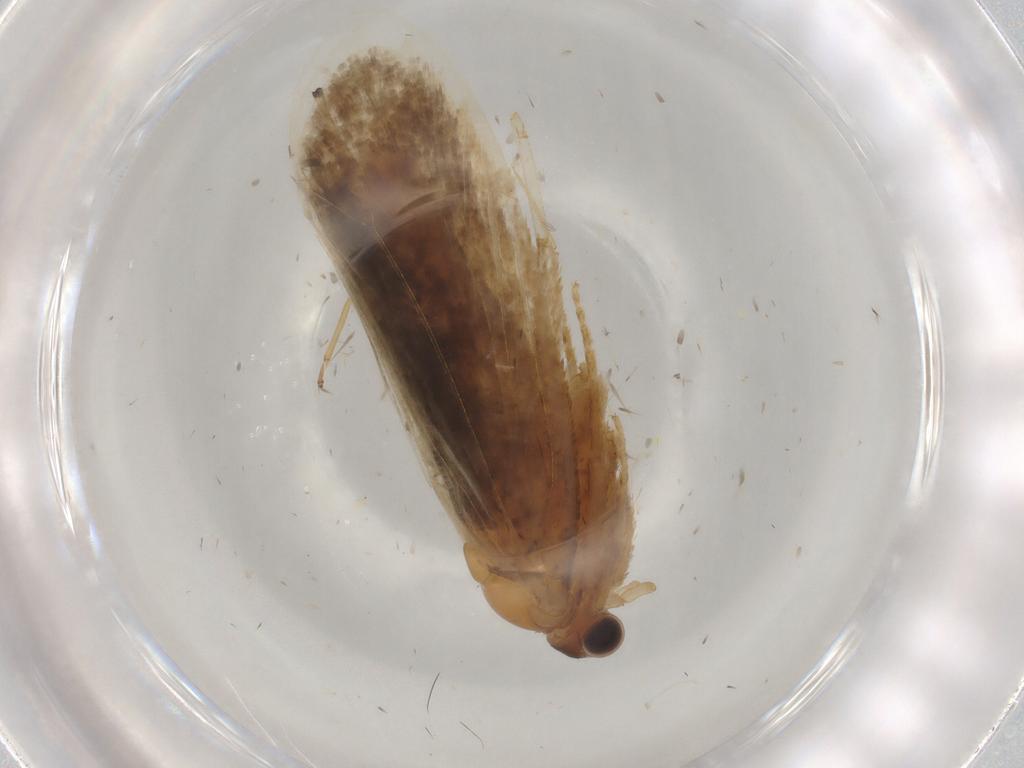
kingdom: Animalia
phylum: Arthropoda
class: Insecta
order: Lepidoptera
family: Nepticulidae
